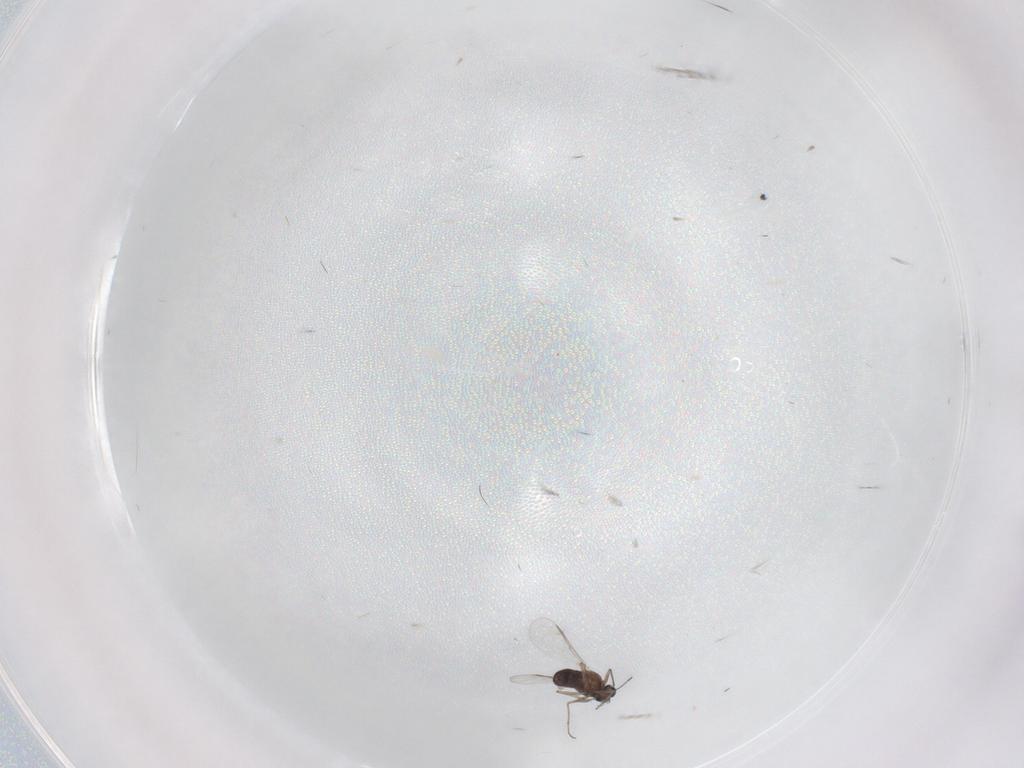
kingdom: Animalia
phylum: Arthropoda
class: Insecta
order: Diptera
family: Chironomidae
